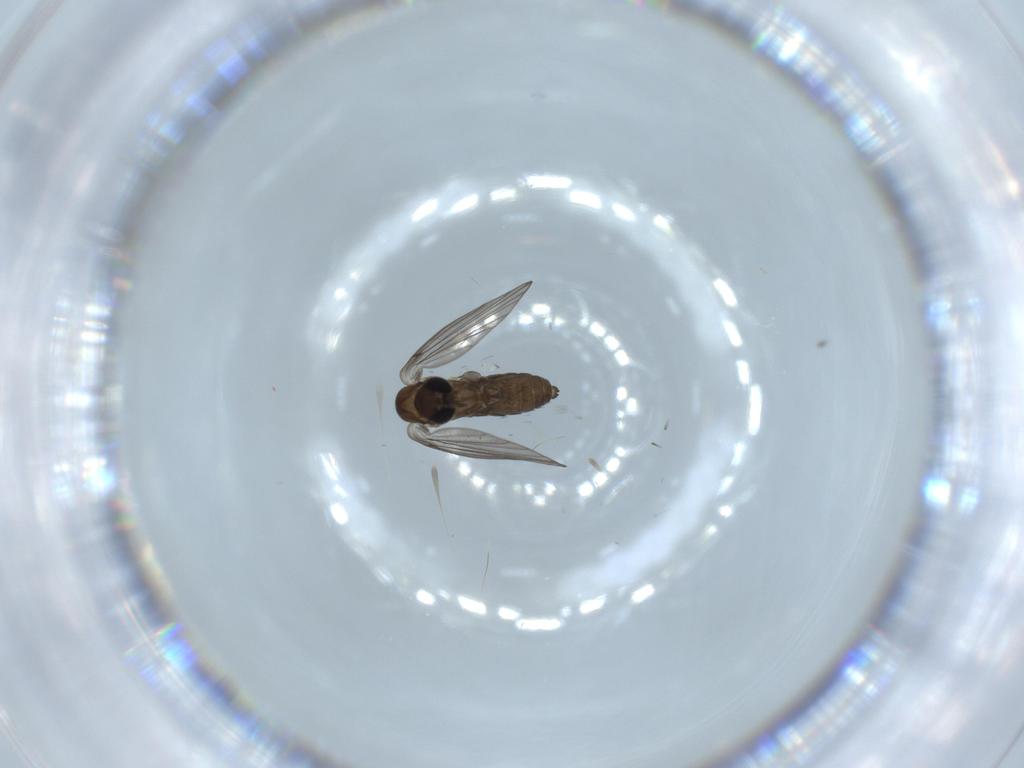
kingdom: Animalia
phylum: Arthropoda
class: Insecta
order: Diptera
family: Psychodidae
